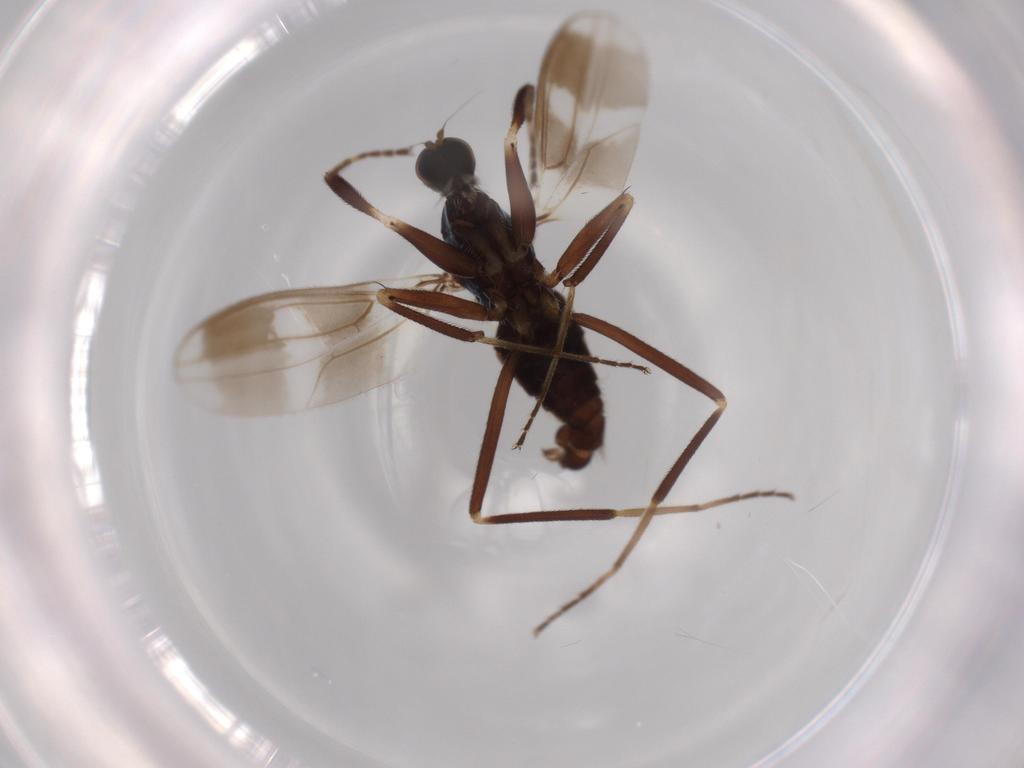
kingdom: Animalia
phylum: Arthropoda
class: Insecta
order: Diptera
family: Hybotidae
